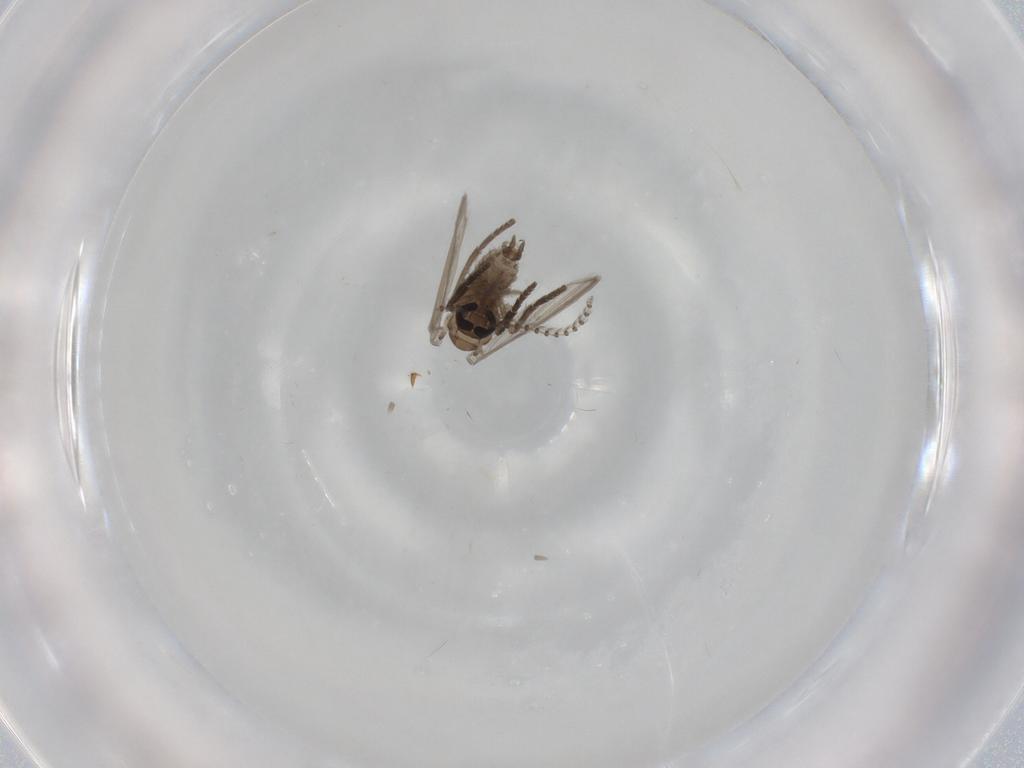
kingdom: Animalia
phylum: Arthropoda
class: Insecta
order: Diptera
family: Psychodidae
